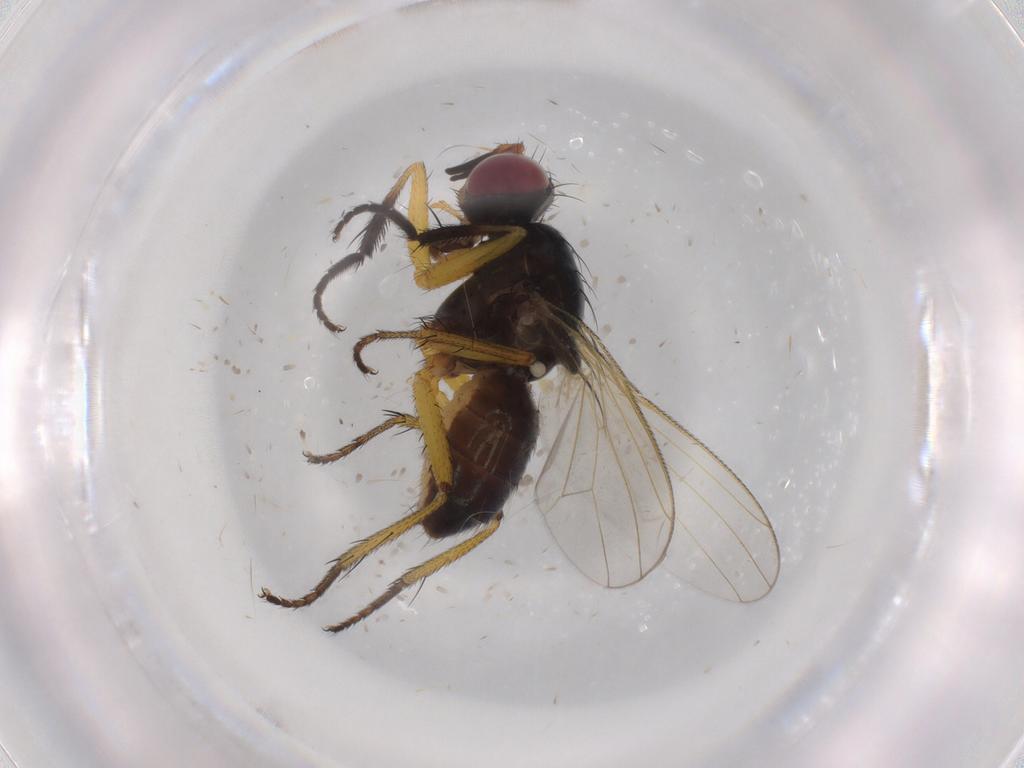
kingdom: Animalia
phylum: Arthropoda
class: Insecta
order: Diptera
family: Chironomidae
